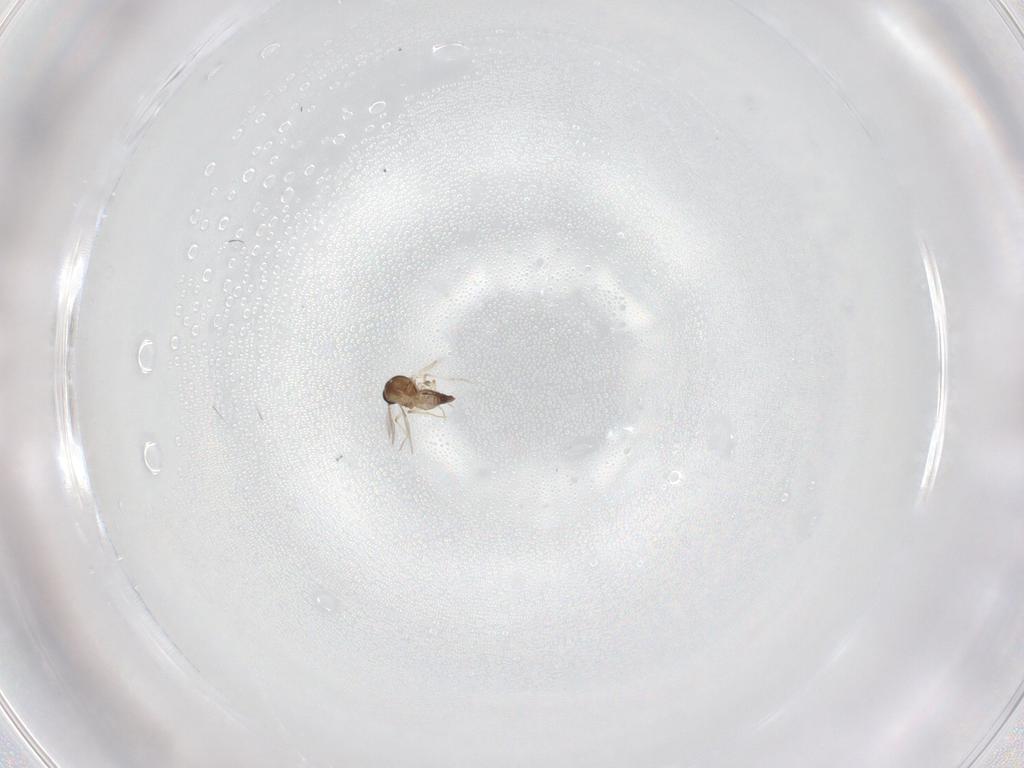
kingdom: Animalia
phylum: Arthropoda
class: Insecta
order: Diptera
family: Ceratopogonidae
